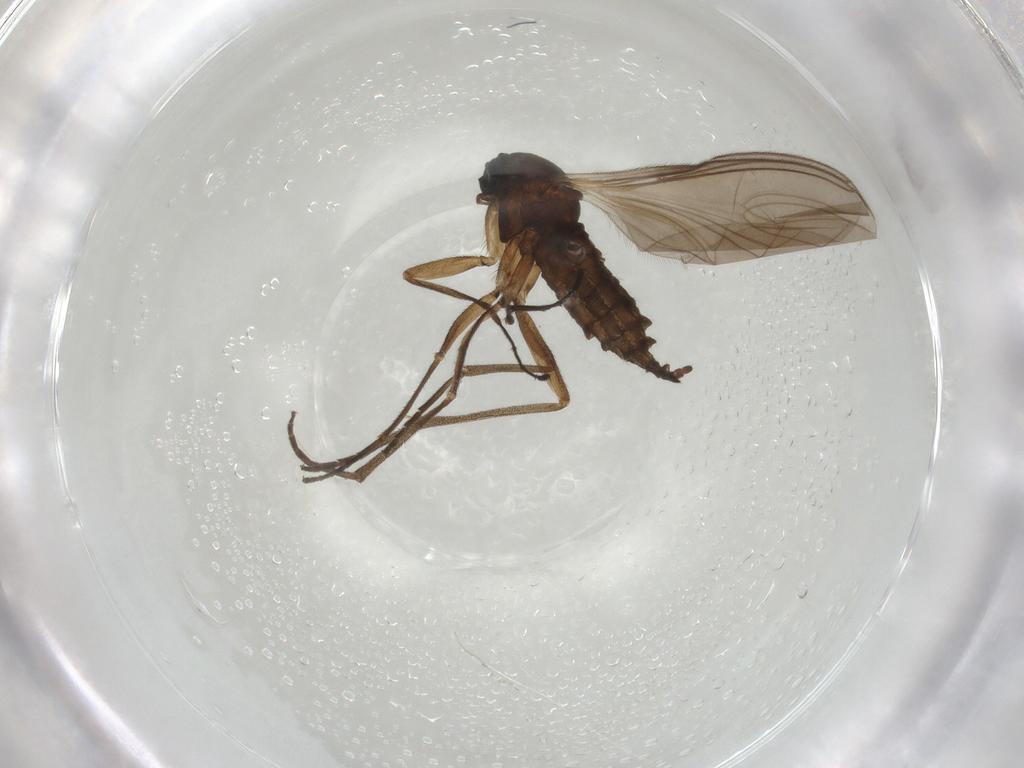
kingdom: Animalia
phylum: Arthropoda
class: Insecta
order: Diptera
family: Sciaridae
